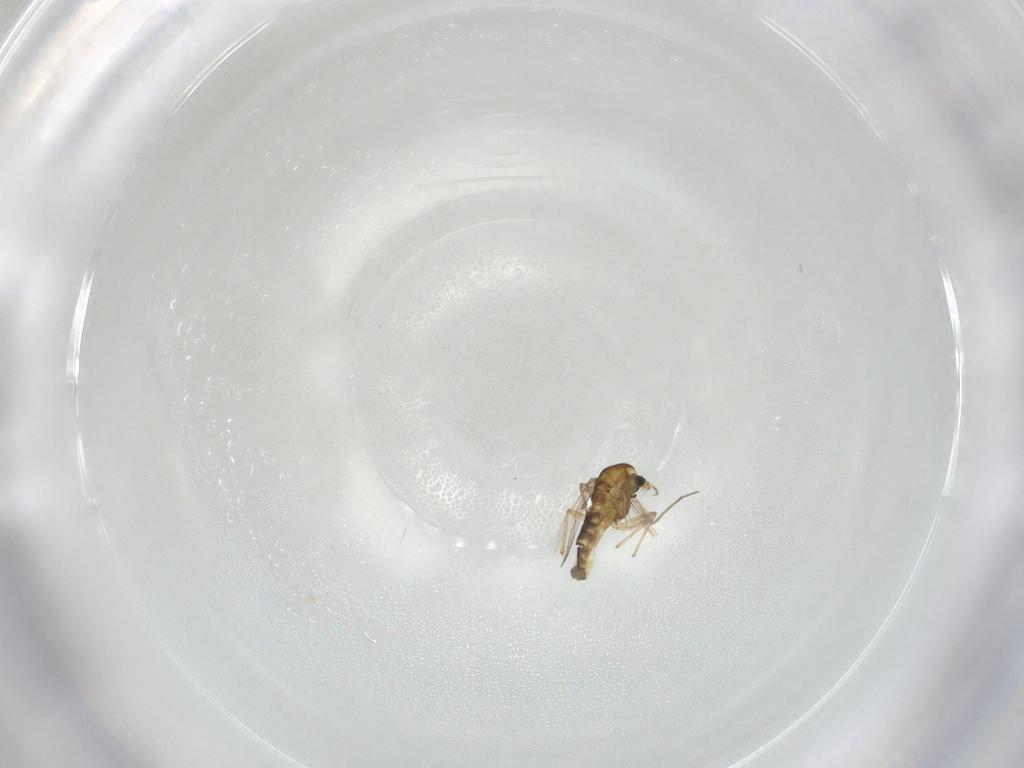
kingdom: Animalia
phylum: Arthropoda
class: Insecta
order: Diptera
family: Chironomidae
